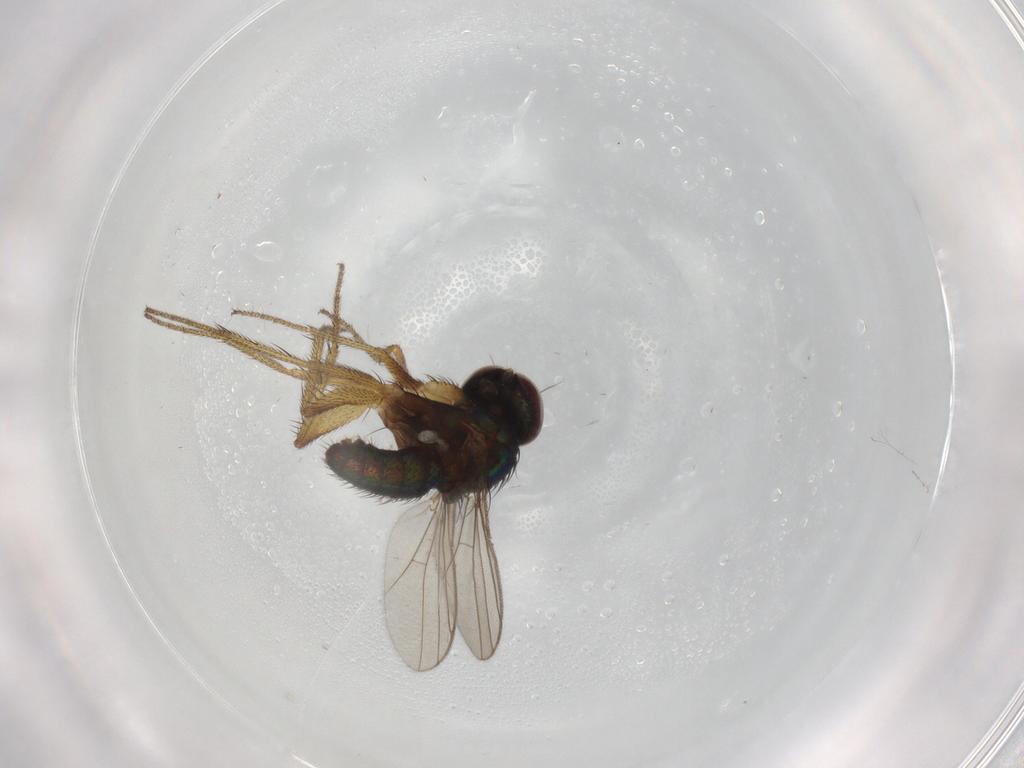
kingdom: Animalia
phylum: Arthropoda
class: Insecta
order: Diptera
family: Dolichopodidae
